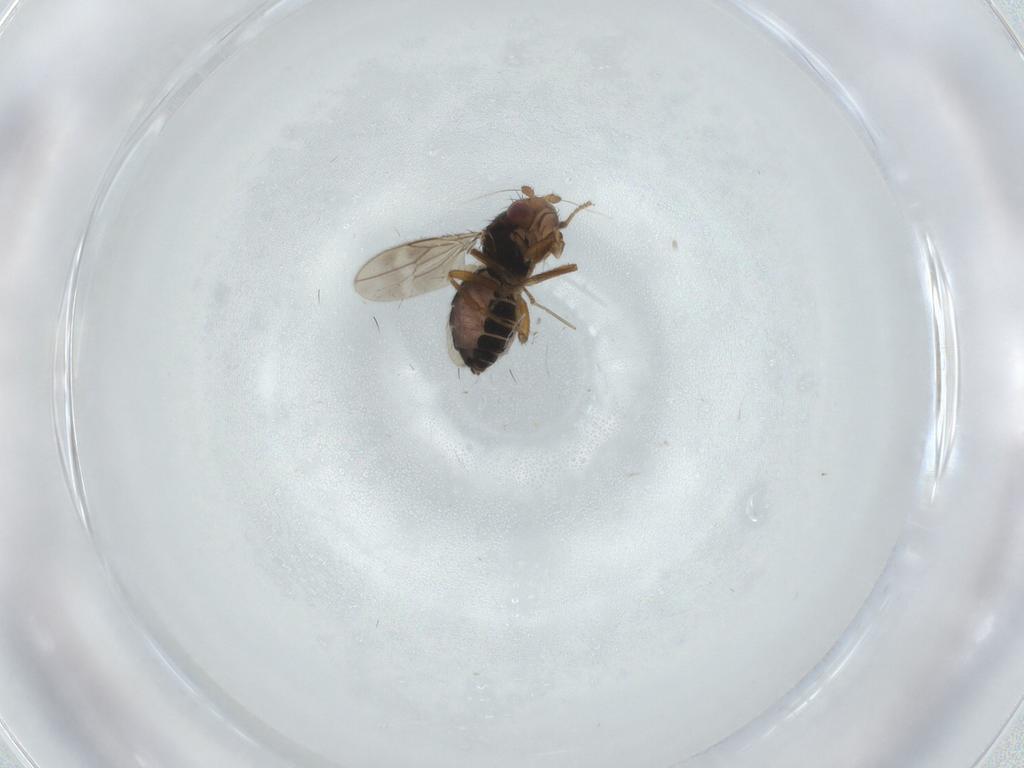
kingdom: Animalia
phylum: Arthropoda
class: Insecta
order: Diptera
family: Sphaeroceridae
